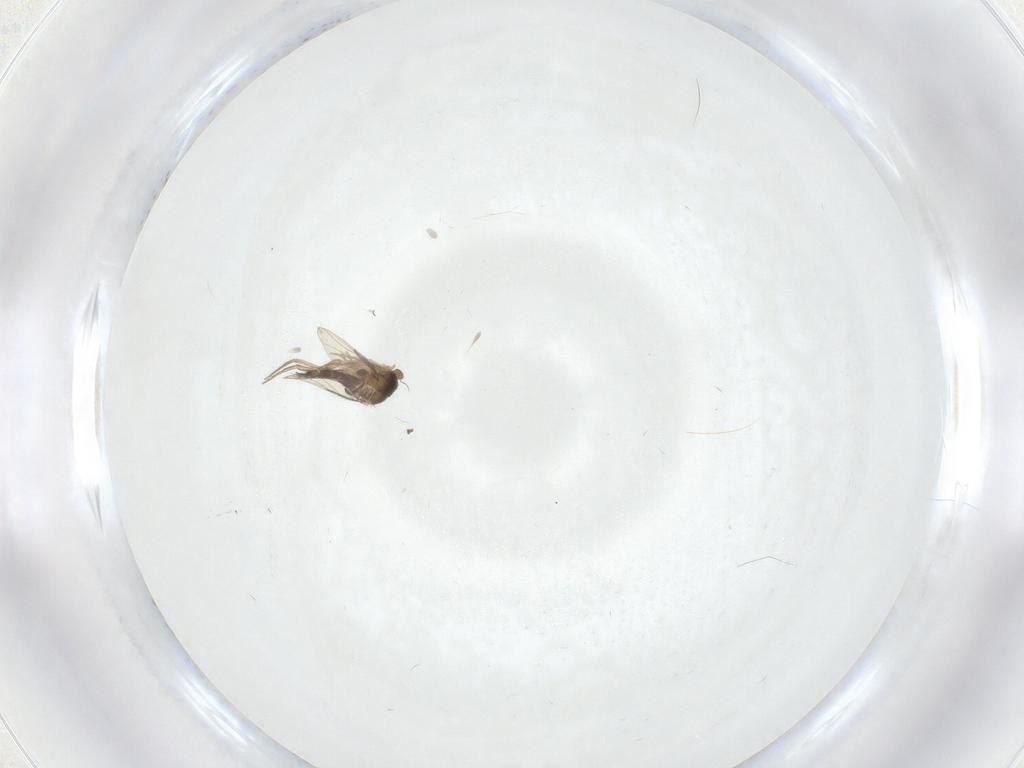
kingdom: Animalia
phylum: Arthropoda
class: Insecta
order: Diptera
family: Phoridae
